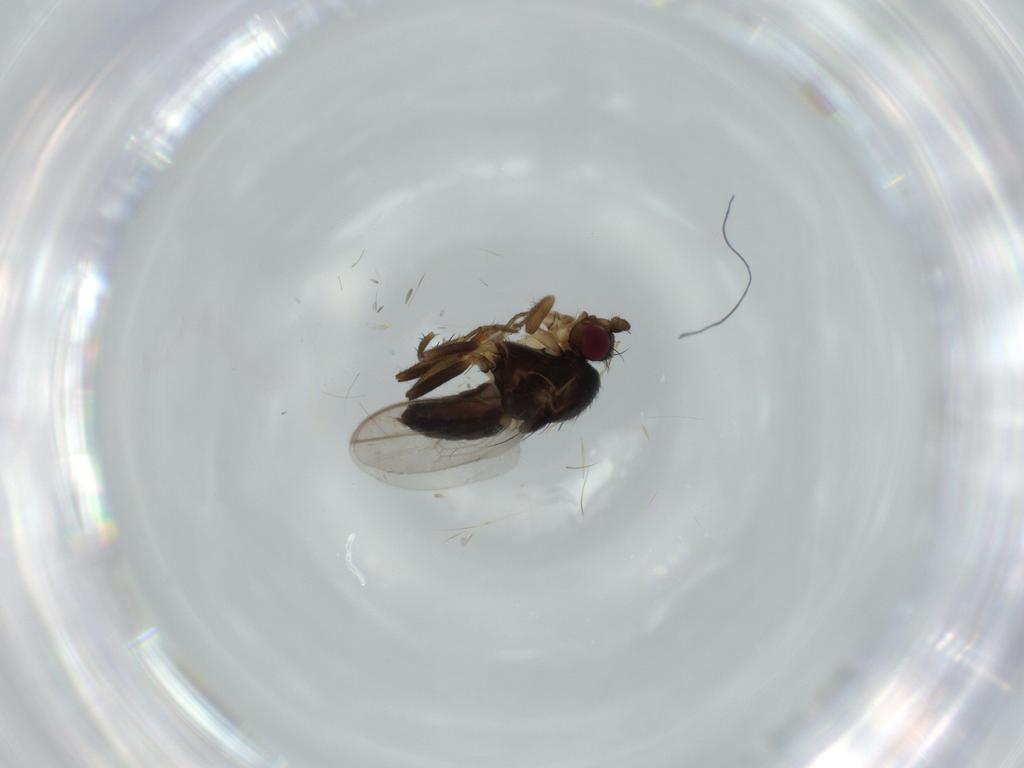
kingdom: Animalia
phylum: Arthropoda
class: Insecta
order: Diptera
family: Sphaeroceridae
